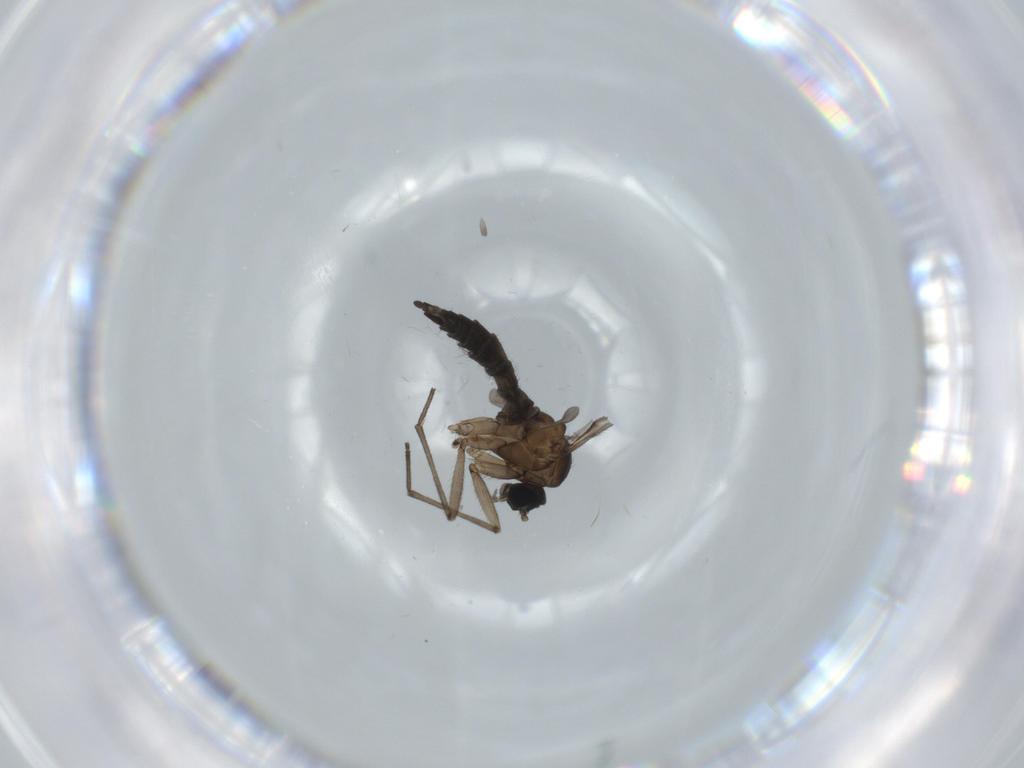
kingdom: Animalia
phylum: Arthropoda
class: Insecta
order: Diptera
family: Sciaridae
